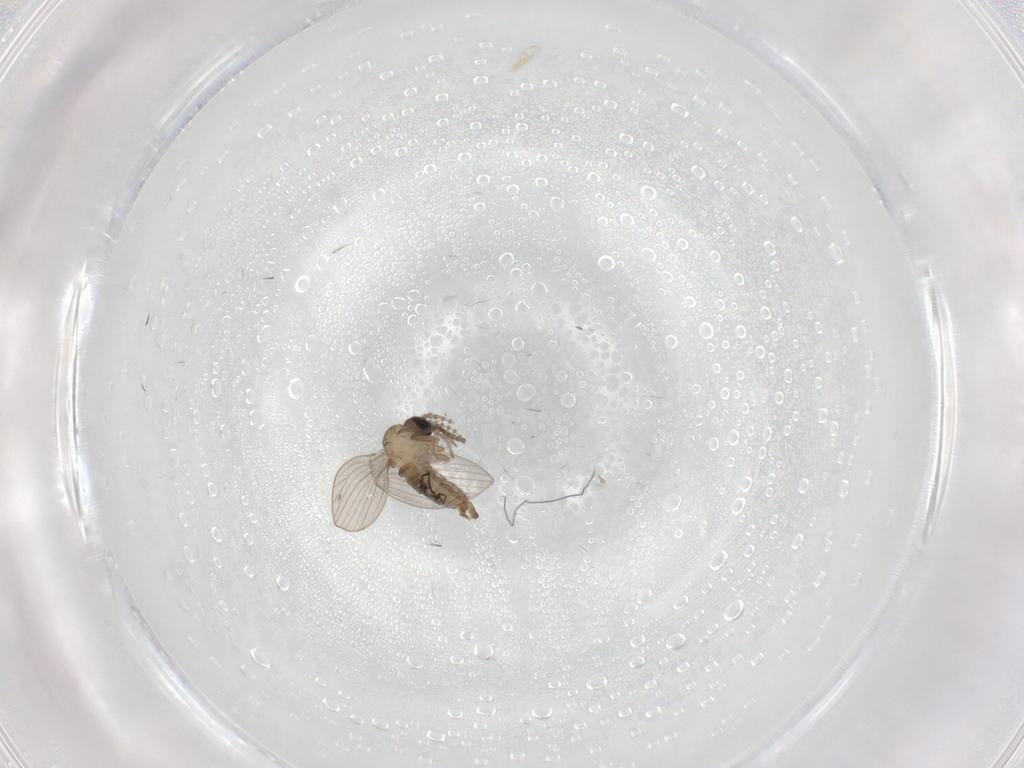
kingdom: Animalia
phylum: Arthropoda
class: Insecta
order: Diptera
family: Psychodidae
